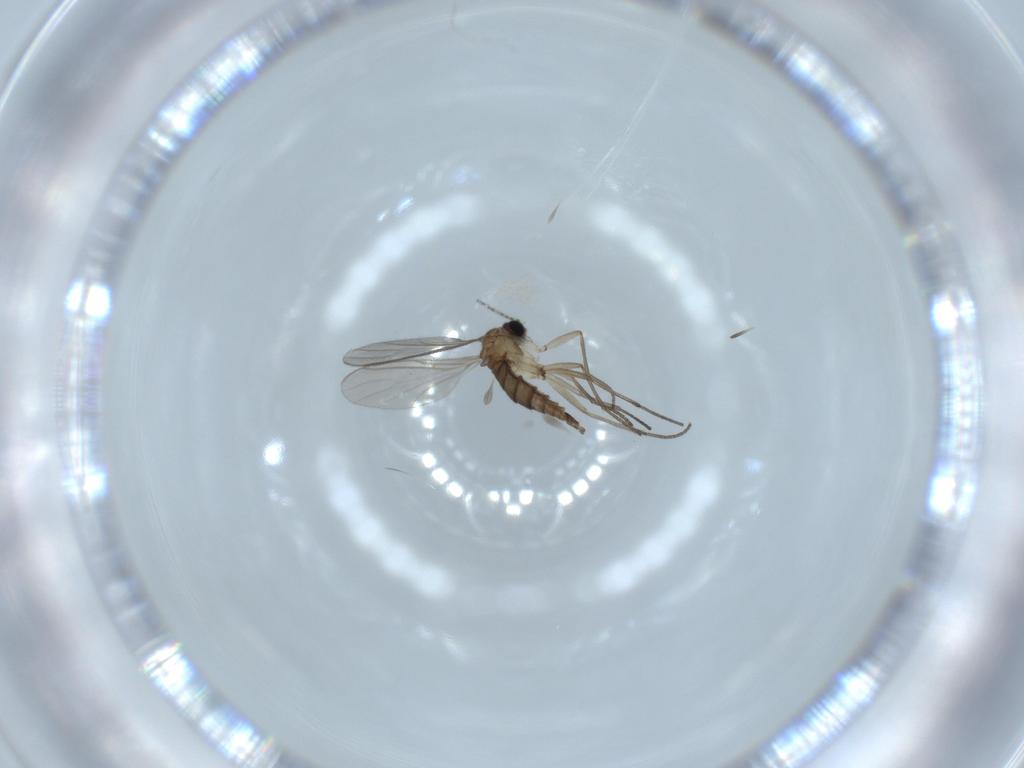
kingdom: Animalia
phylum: Arthropoda
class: Insecta
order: Diptera
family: Sciaridae
